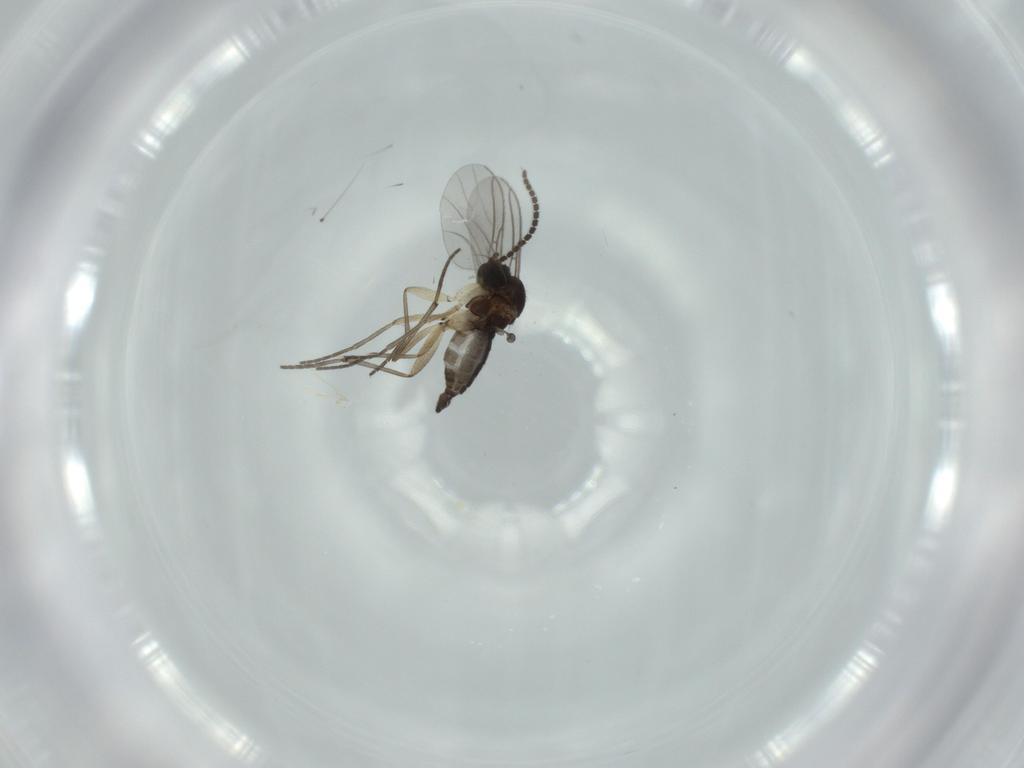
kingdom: Animalia
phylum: Arthropoda
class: Insecta
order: Diptera
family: Sciaridae
